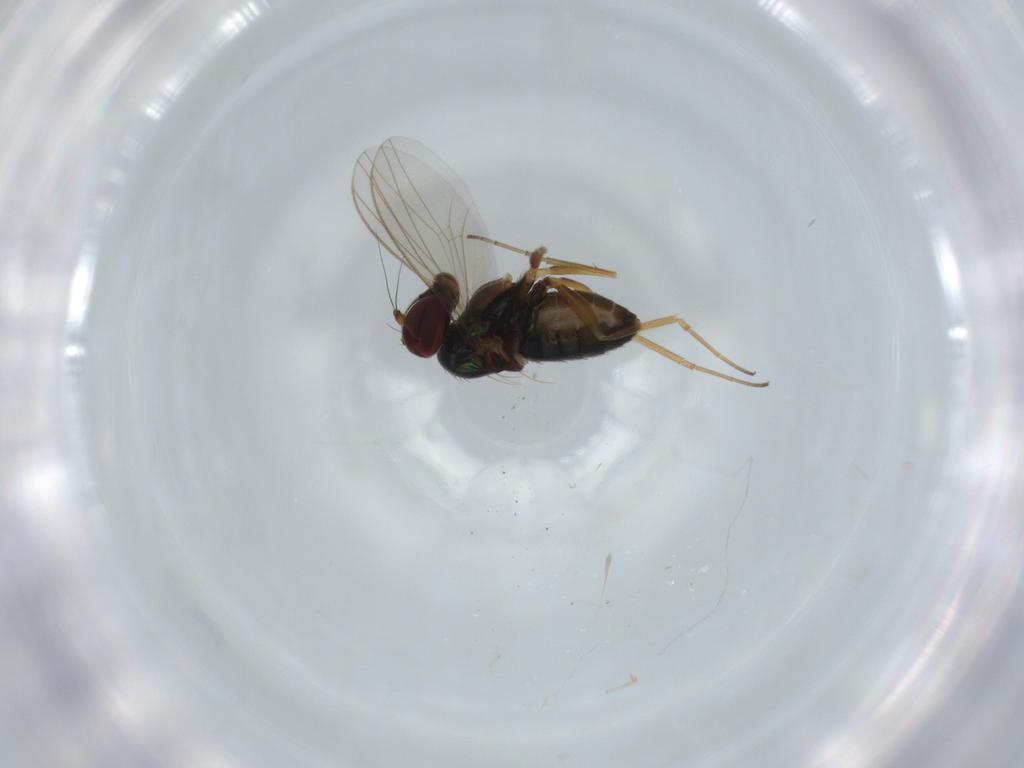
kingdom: Animalia
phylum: Arthropoda
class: Insecta
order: Diptera
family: Dolichopodidae
